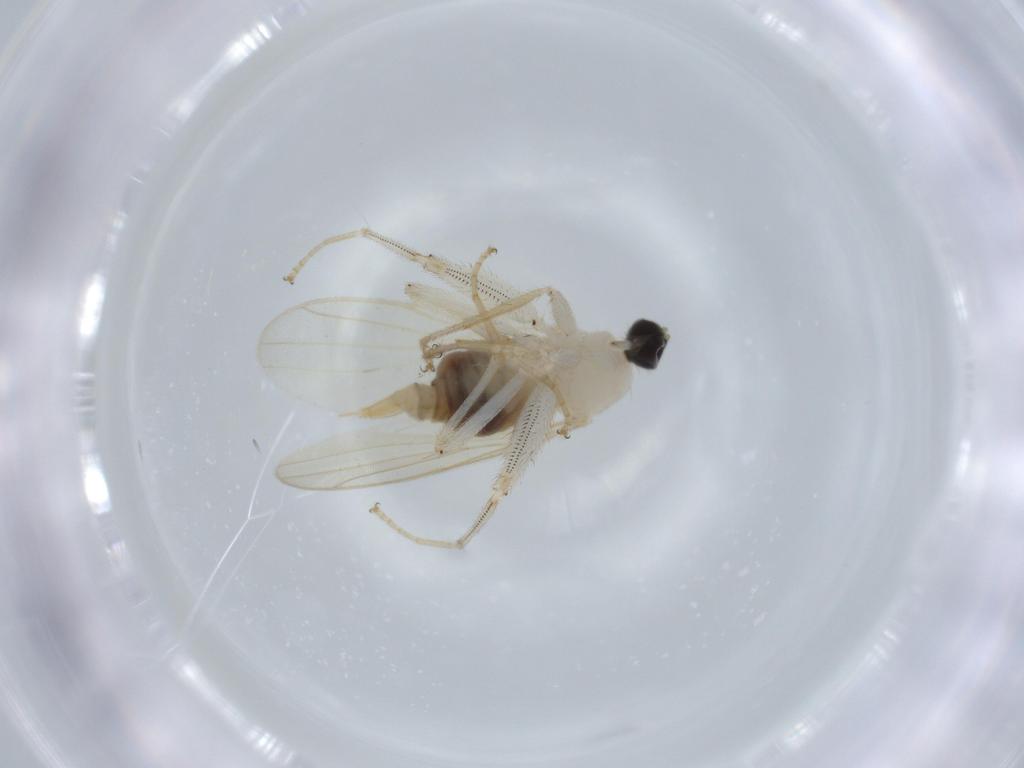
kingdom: Animalia
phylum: Arthropoda
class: Insecta
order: Diptera
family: Hybotidae
